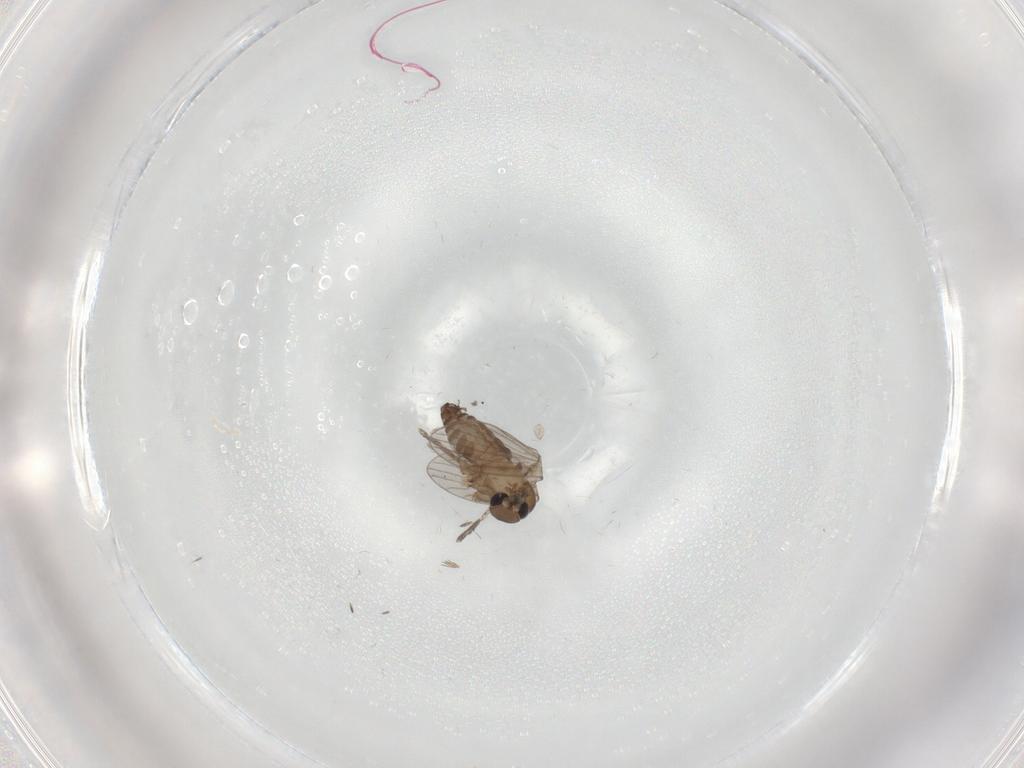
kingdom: Animalia
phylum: Arthropoda
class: Insecta
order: Diptera
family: Phoridae
